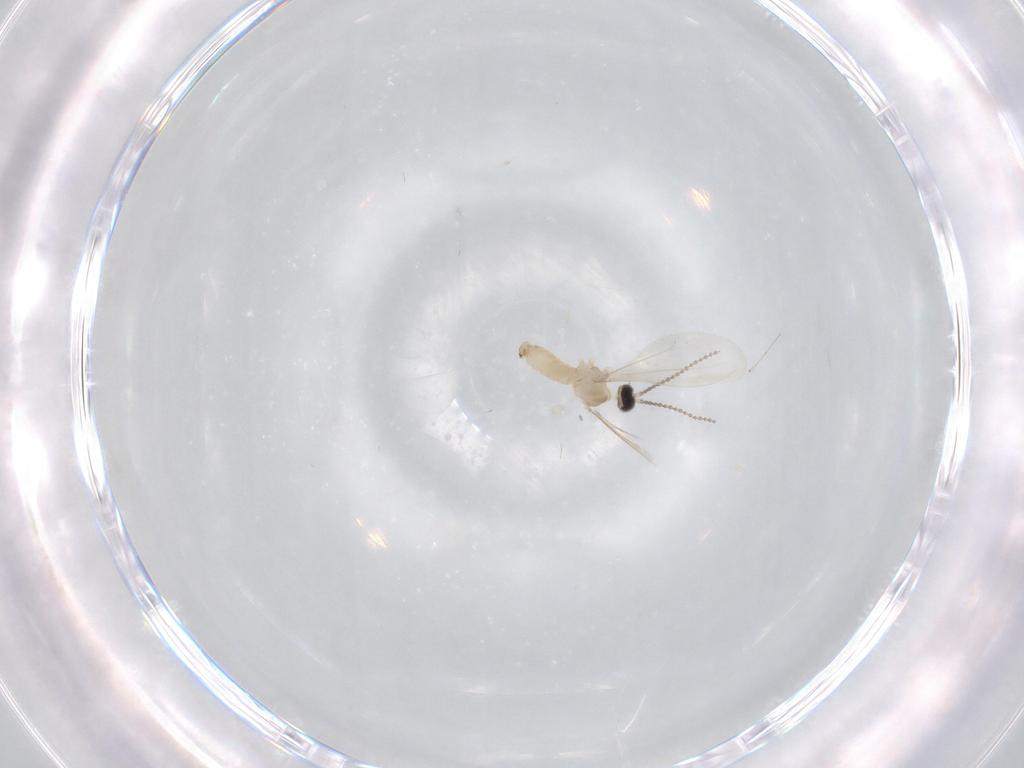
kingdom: Animalia
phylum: Arthropoda
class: Insecta
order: Diptera
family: Cecidomyiidae
